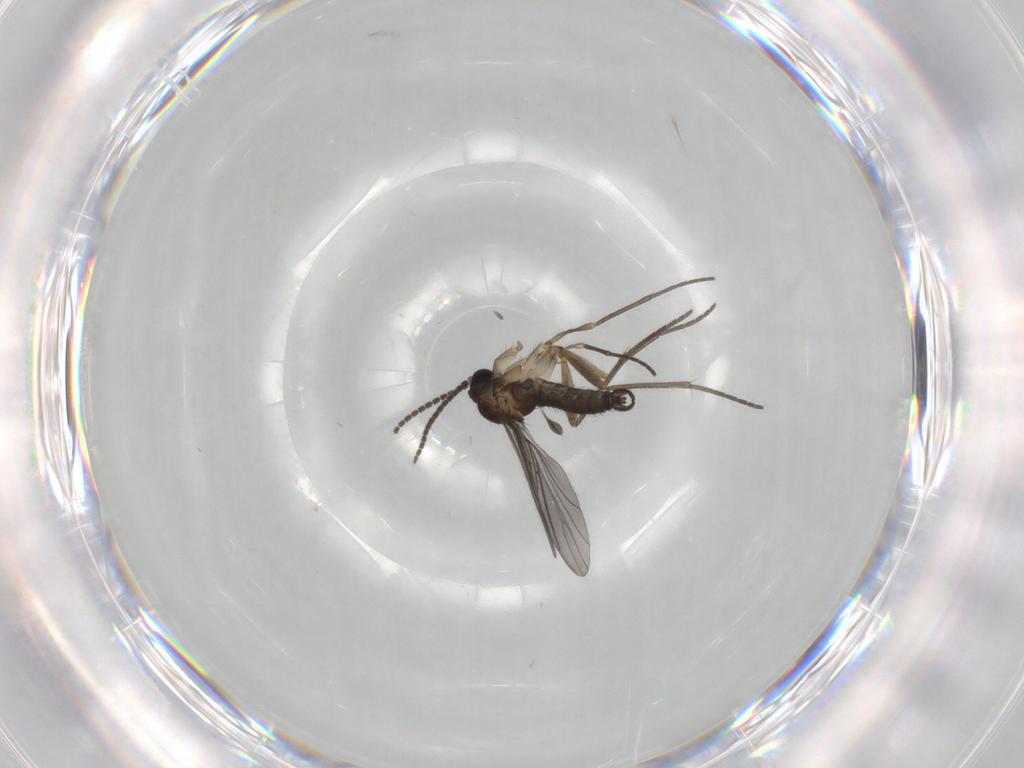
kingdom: Animalia
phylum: Arthropoda
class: Insecta
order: Diptera
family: Sciaridae
